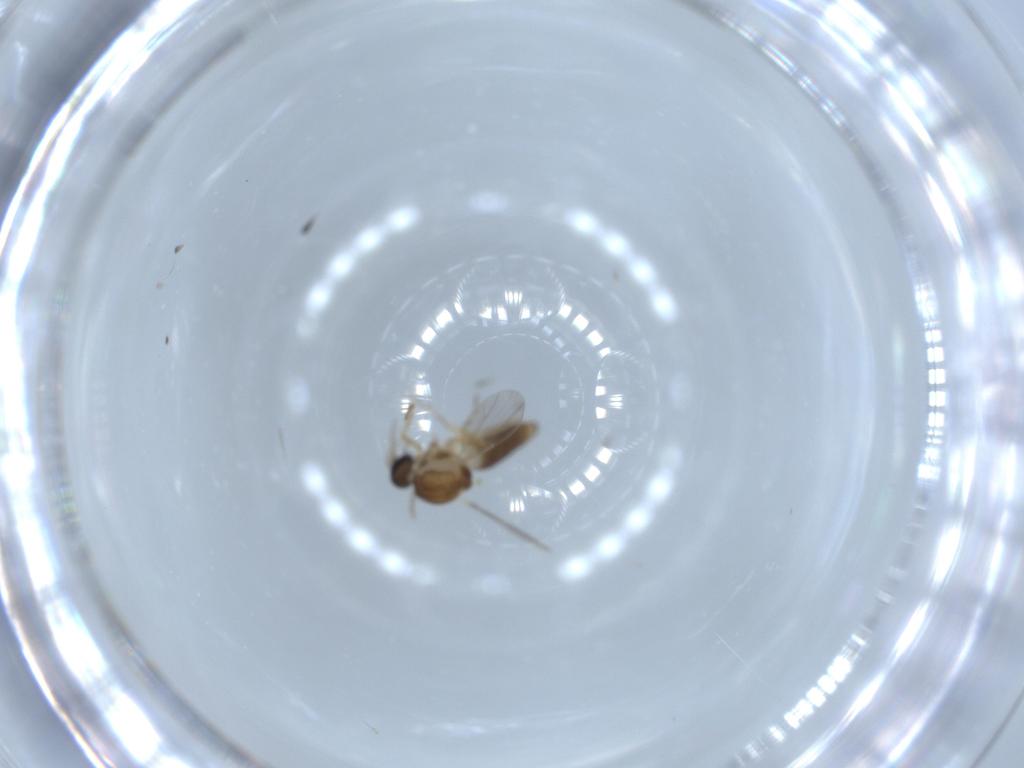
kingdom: Animalia
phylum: Arthropoda
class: Insecta
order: Diptera
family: Ceratopogonidae
